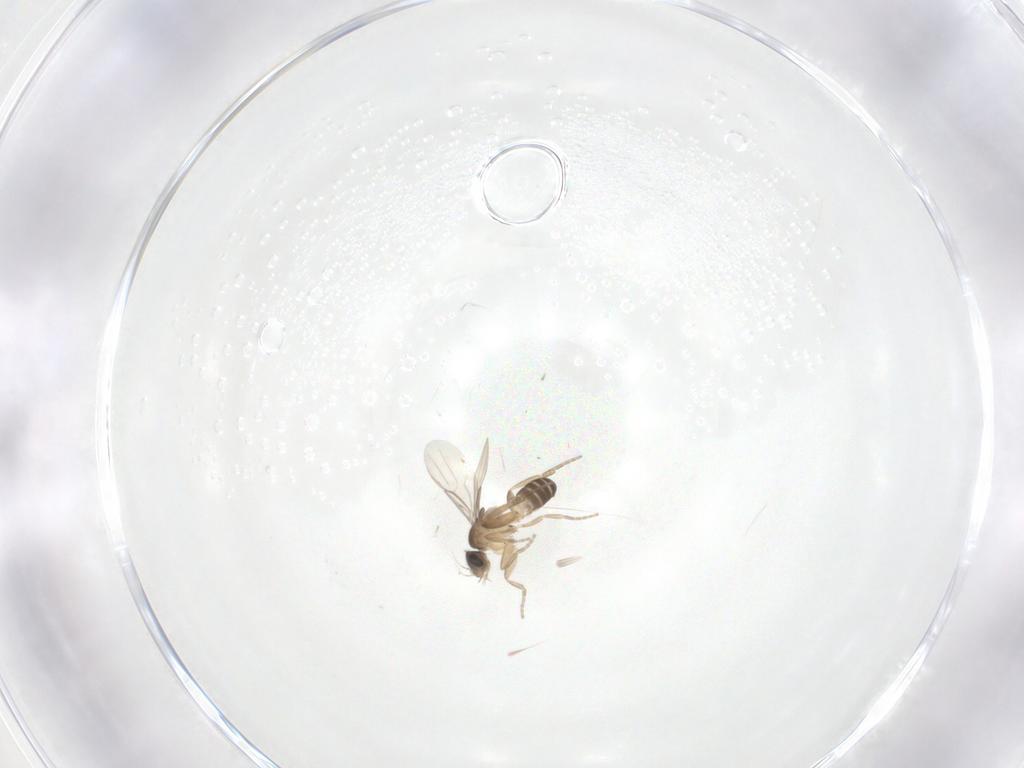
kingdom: Animalia
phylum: Arthropoda
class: Insecta
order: Diptera
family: Phoridae
